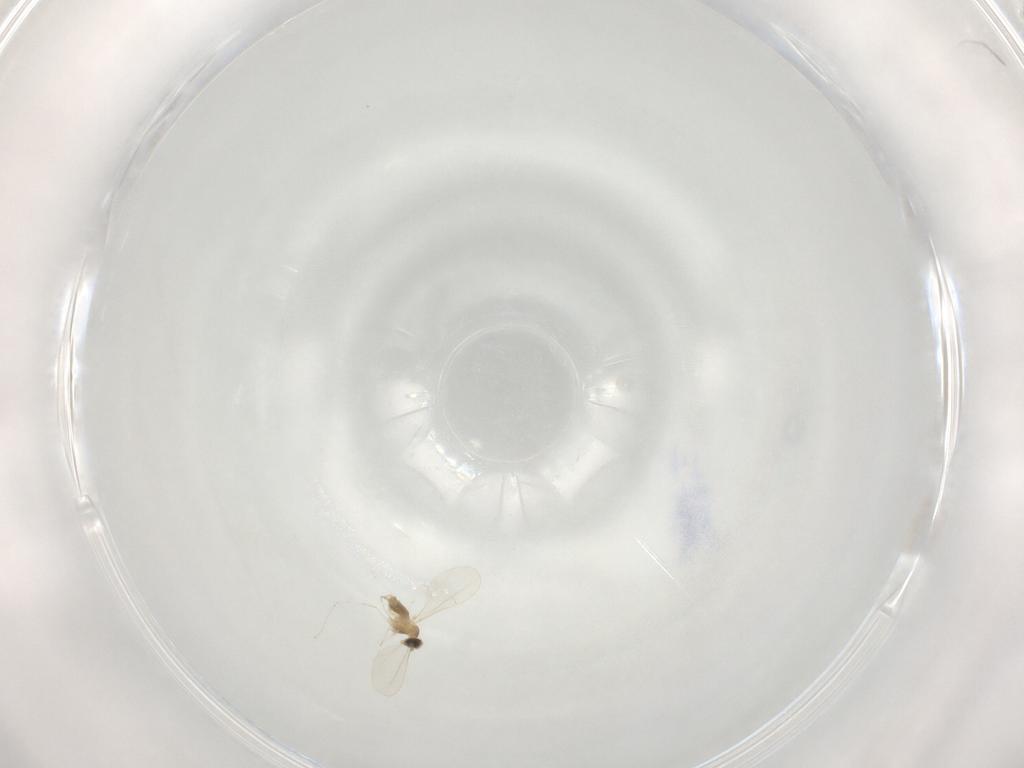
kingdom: Animalia
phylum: Arthropoda
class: Insecta
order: Diptera
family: Cecidomyiidae
